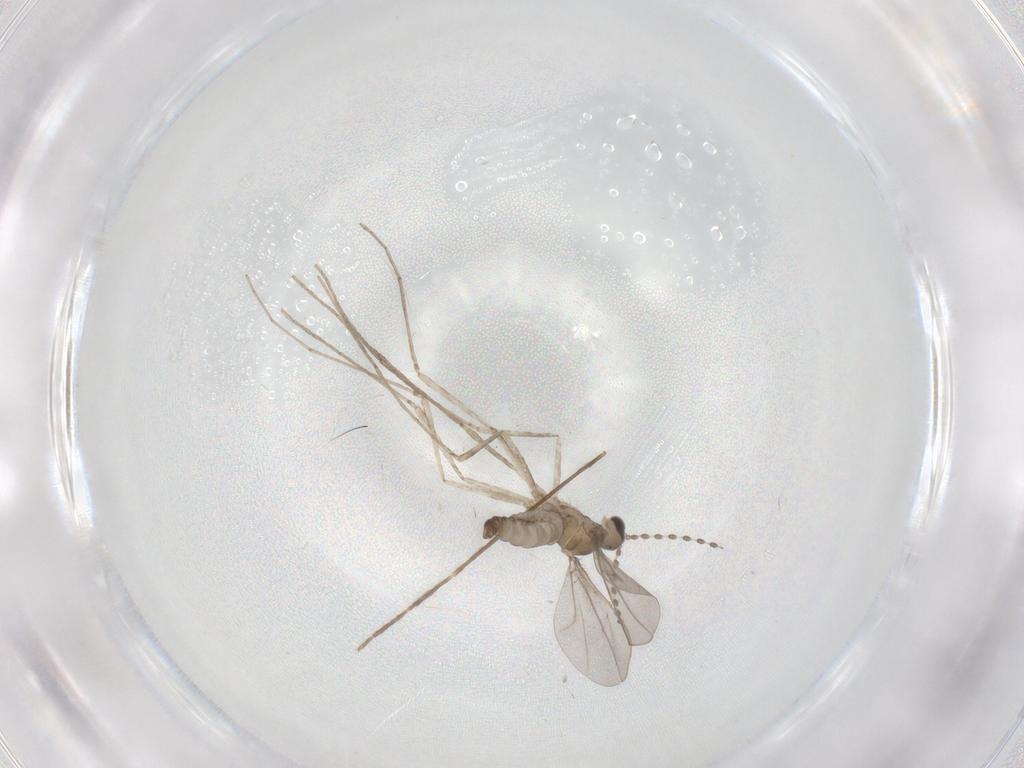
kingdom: Animalia
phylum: Arthropoda
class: Insecta
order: Diptera
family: Chironomidae
